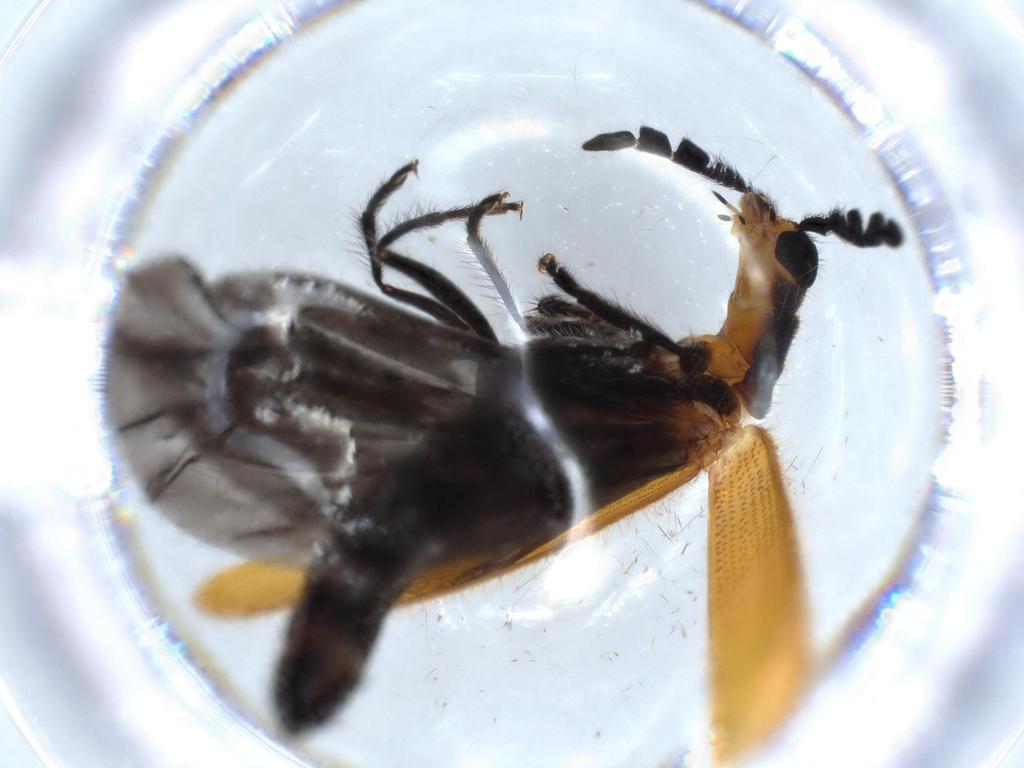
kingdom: Animalia
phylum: Arthropoda
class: Insecta
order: Coleoptera
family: Cleridae
